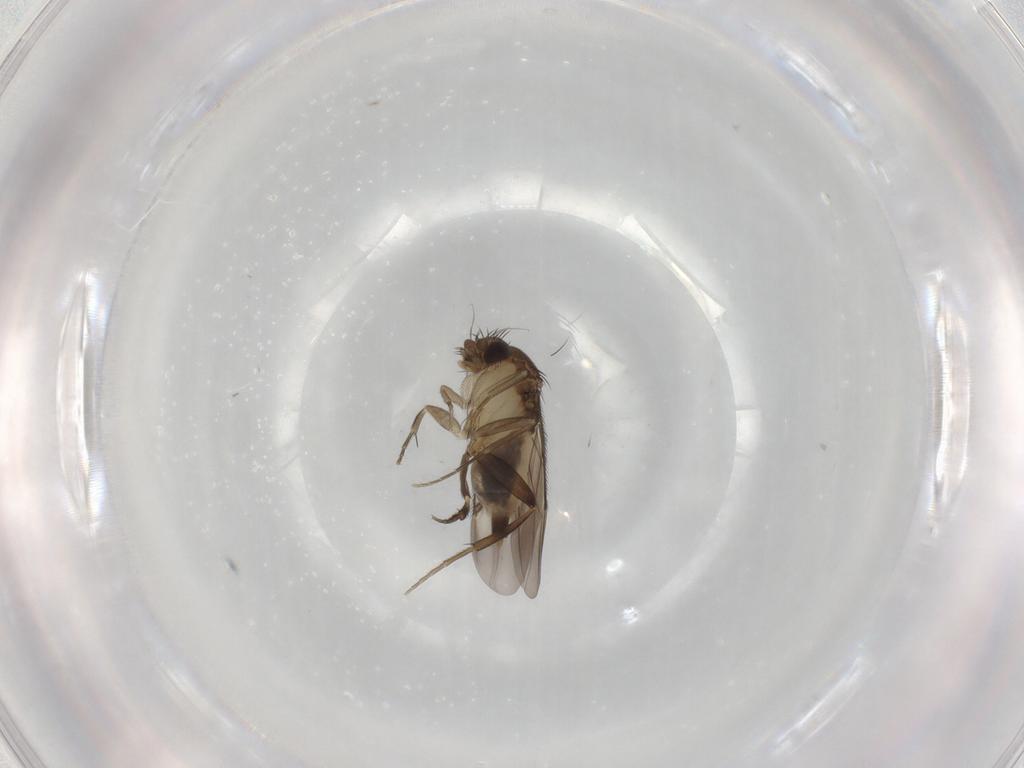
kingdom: Animalia
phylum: Arthropoda
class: Insecta
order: Diptera
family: Phoridae
